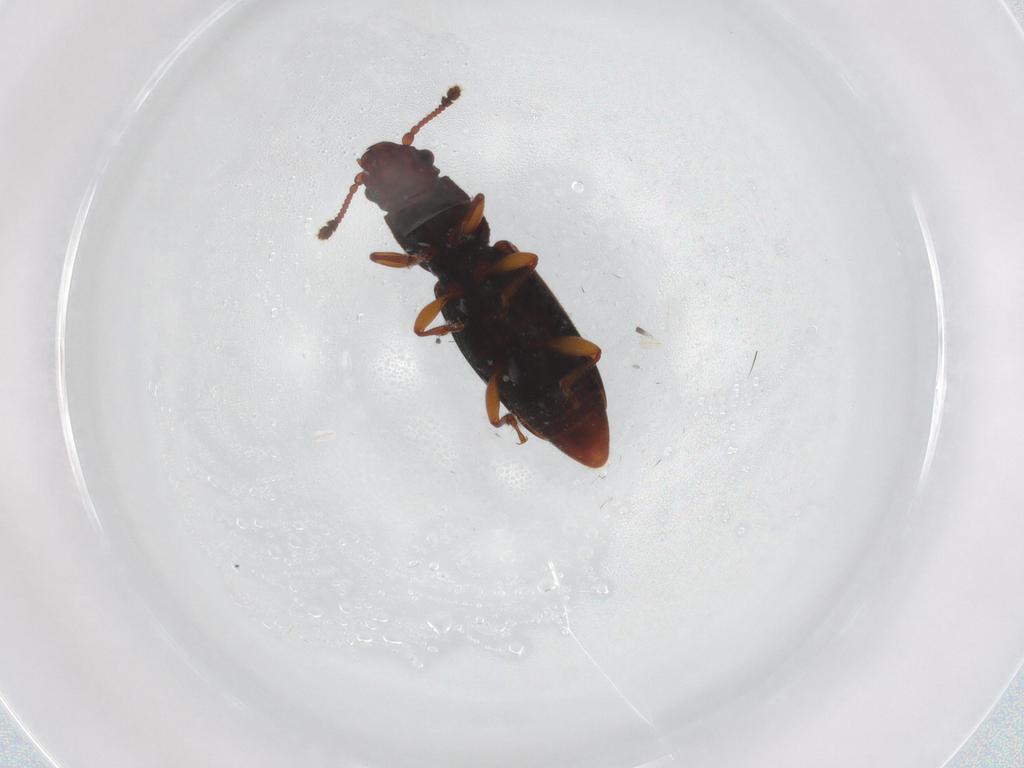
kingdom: Animalia
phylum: Arthropoda
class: Insecta
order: Coleoptera
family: Monotomidae
